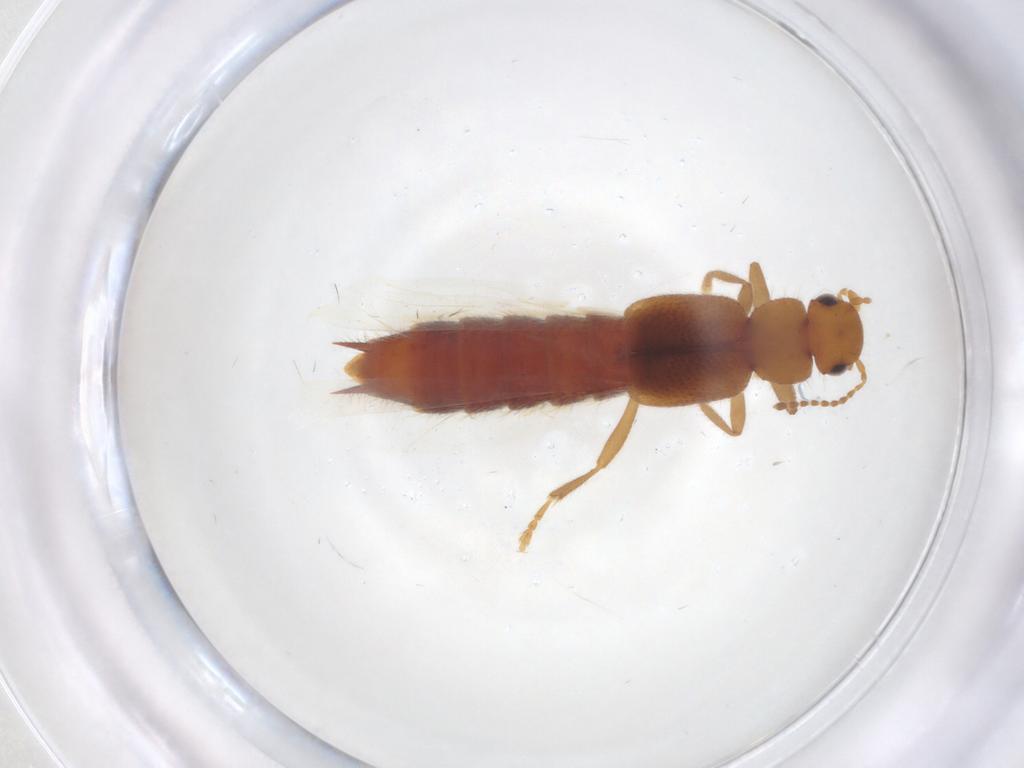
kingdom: Animalia
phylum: Arthropoda
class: Insecta
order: Coleoptera
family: Staphylinidae
